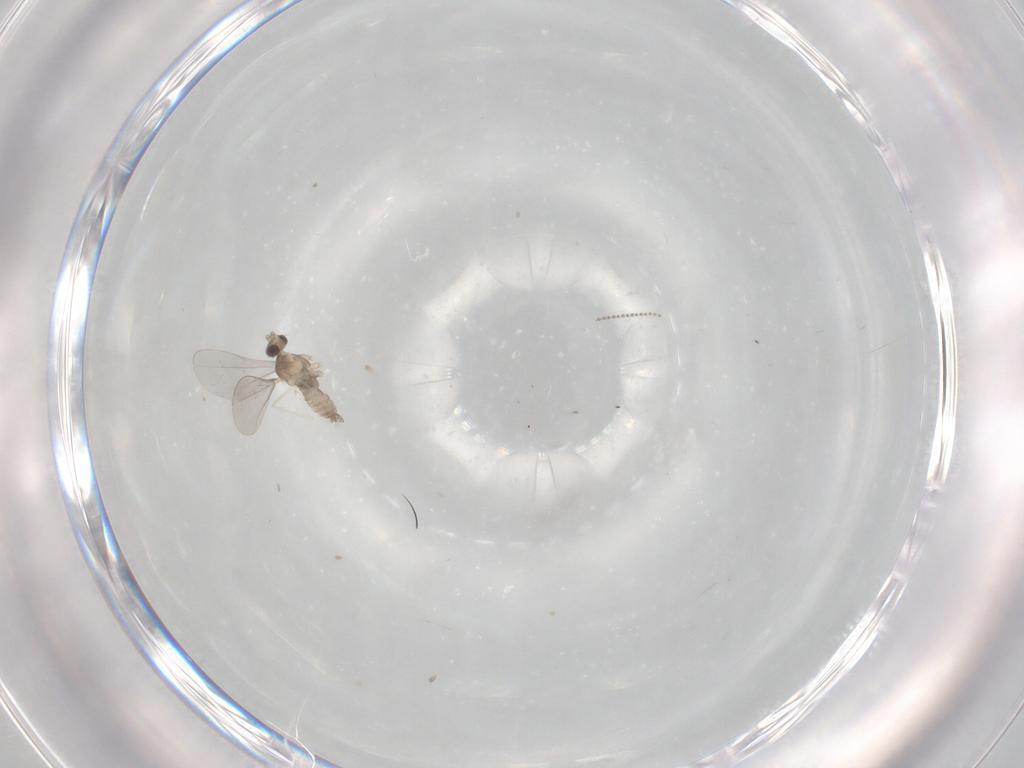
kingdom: Animalia
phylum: Arthropoda
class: Insecta
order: Diptera
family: Cecidomyiidae
